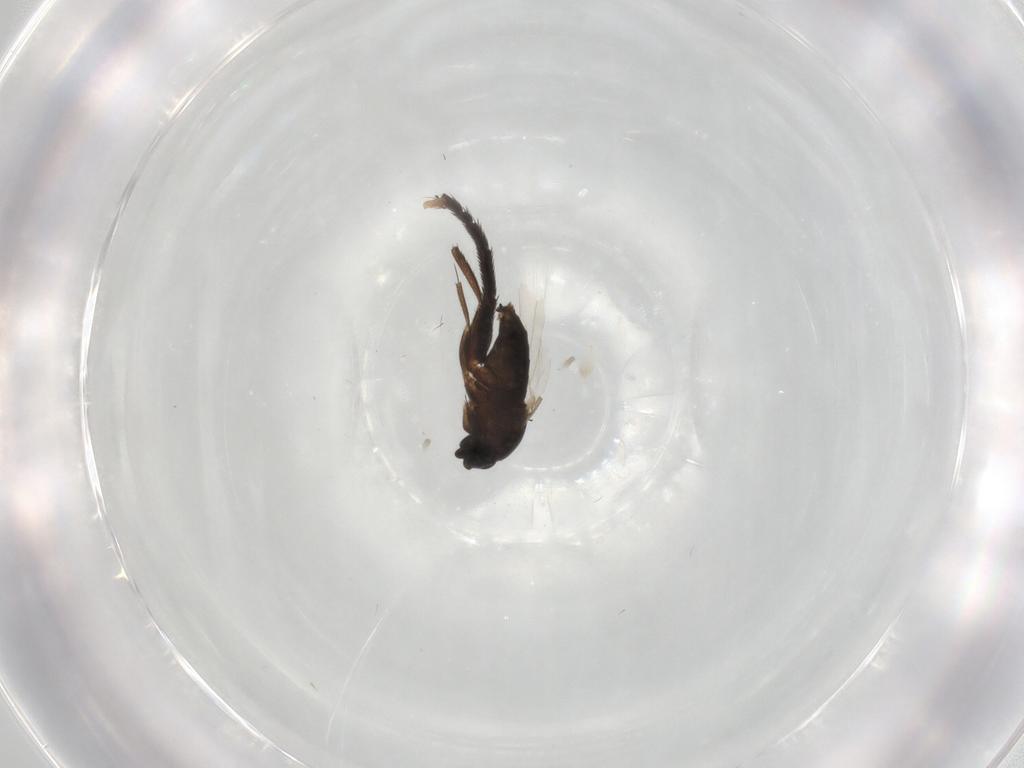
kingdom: Animalia
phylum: Arthropoda
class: Insecta
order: Diptera
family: Phoridae
